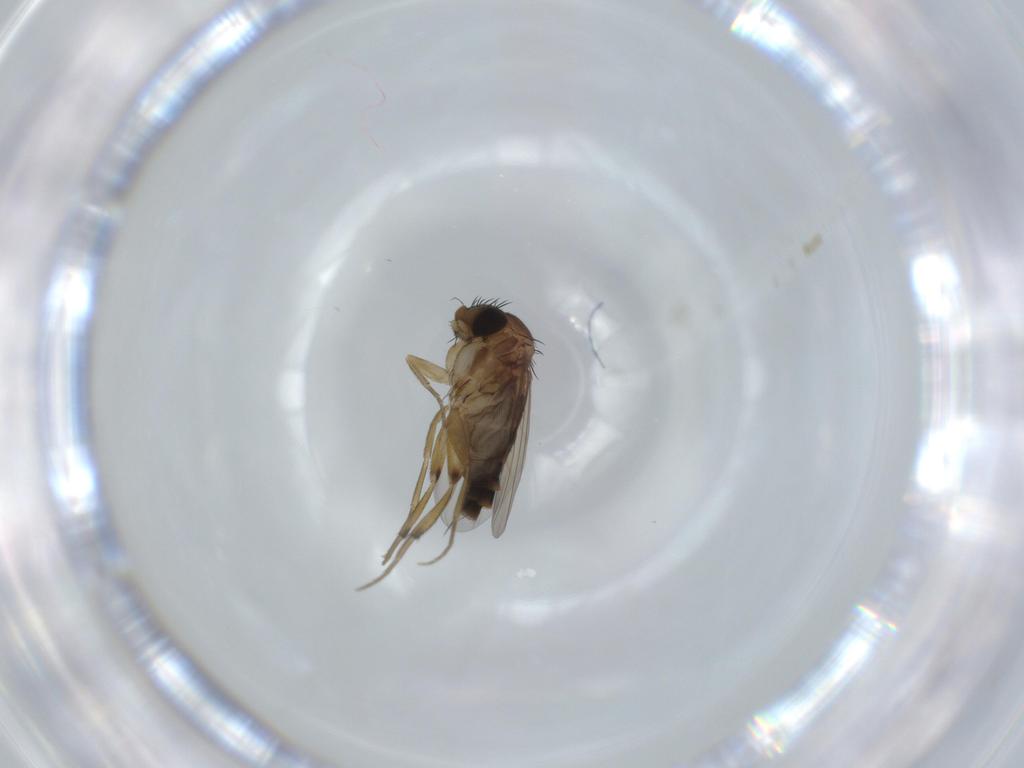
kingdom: Animalia
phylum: Arthropoda
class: Insecta
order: Diptera
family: Phoridae
